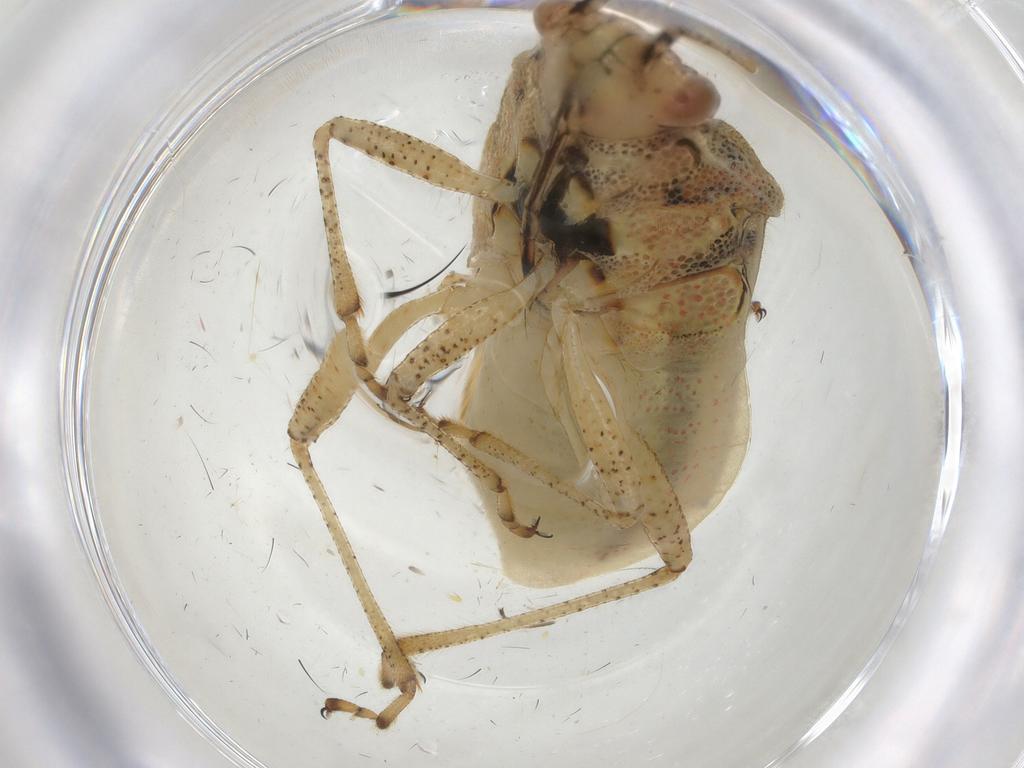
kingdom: Animalia
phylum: Arthropoda
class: Insecta
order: Hemiptera
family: Rhopalidae
